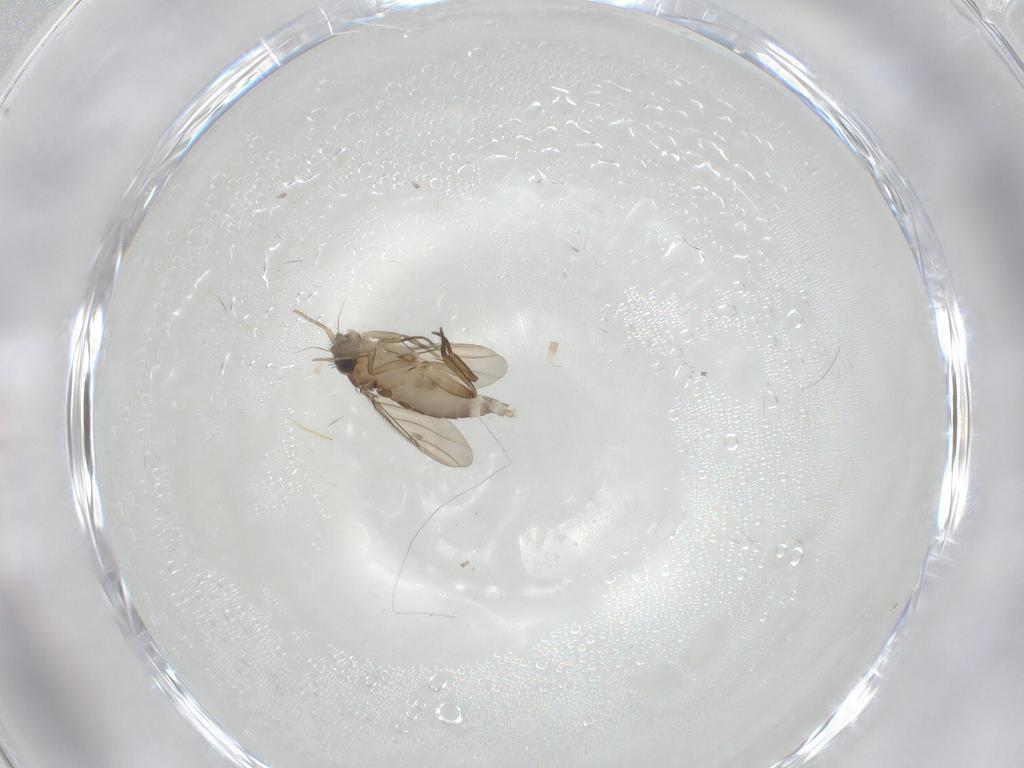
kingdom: Animalia
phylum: Arthropoda
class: Insecta
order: Diptera
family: Phoridae
